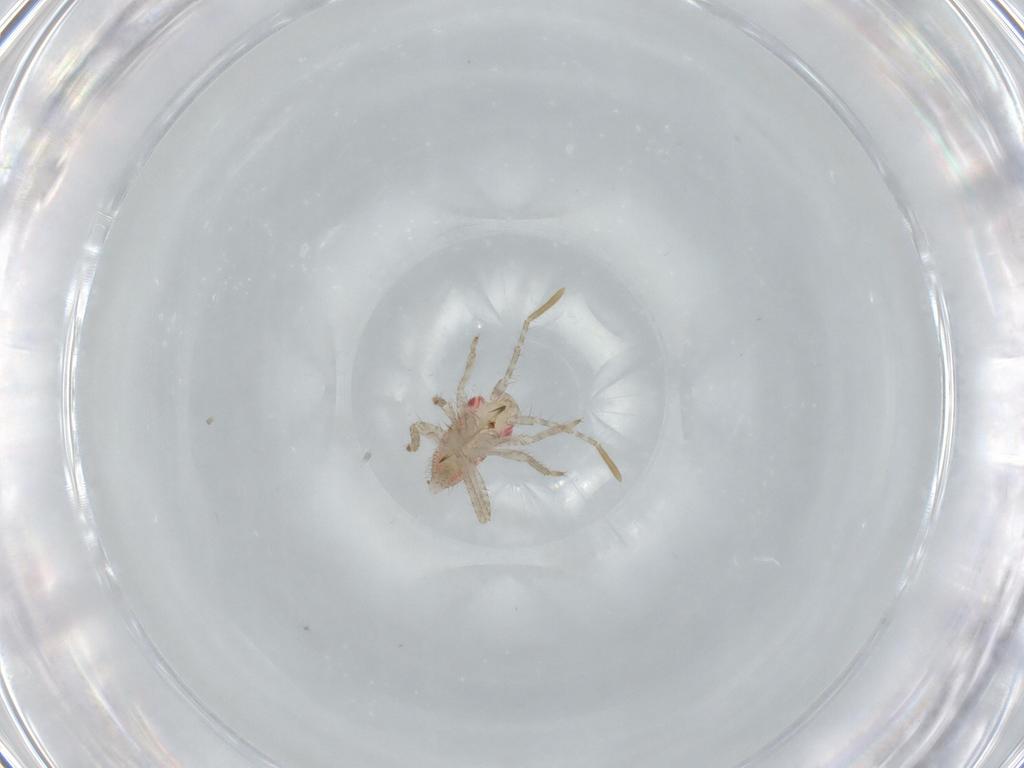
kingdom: Animalia
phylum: Arthropoda
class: Insecta
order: Hemiptera
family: Miridae
